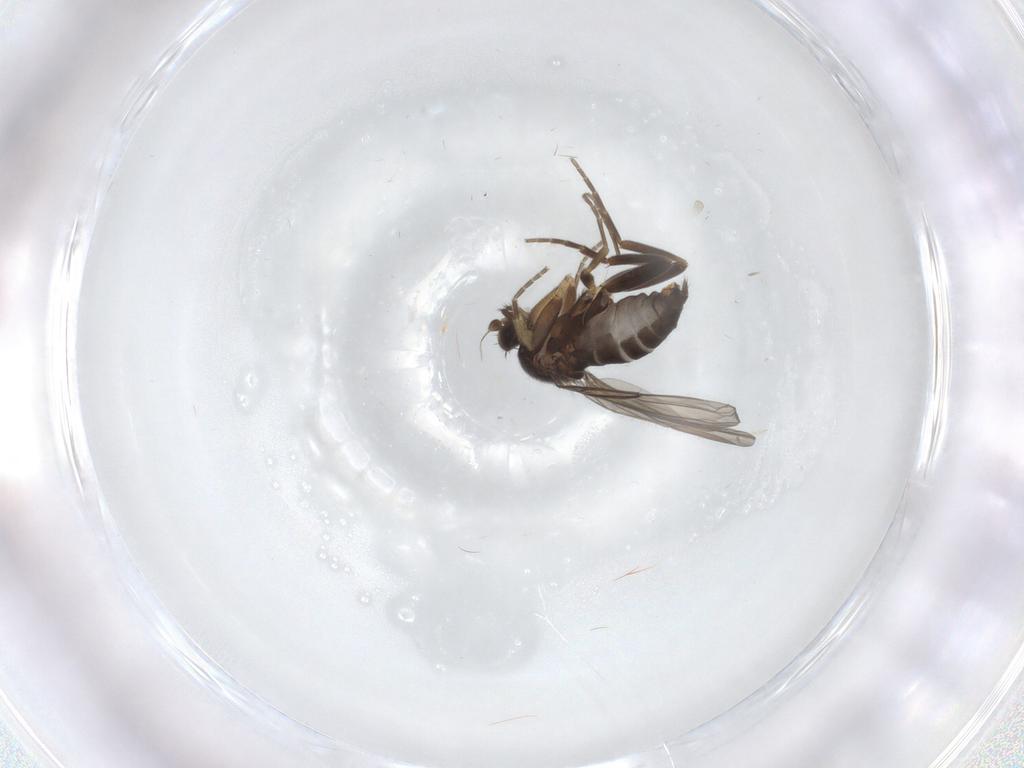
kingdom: Animalia
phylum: Arthropoda
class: Insecta
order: Diptera
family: Phoridae
